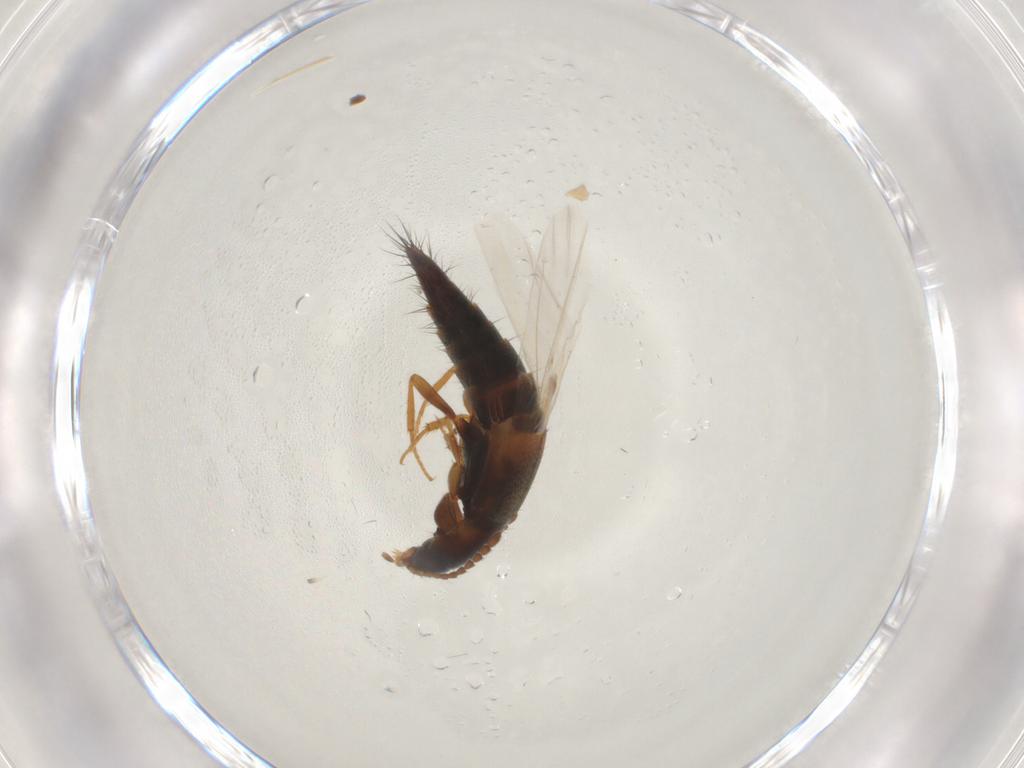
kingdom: Animalia
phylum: Arthropoda
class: Insecta
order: Coleoptera
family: Staphylinidae
